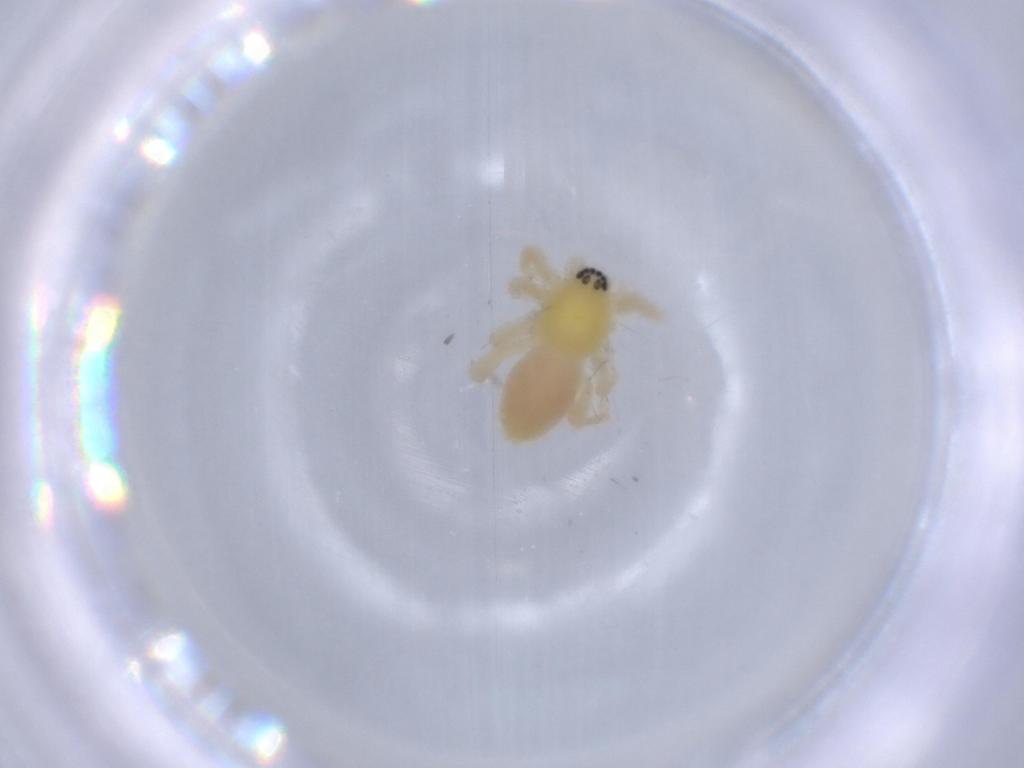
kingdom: Animalia
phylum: Arthropoda
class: Arachnida
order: Araneae
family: Anyphaenidae
